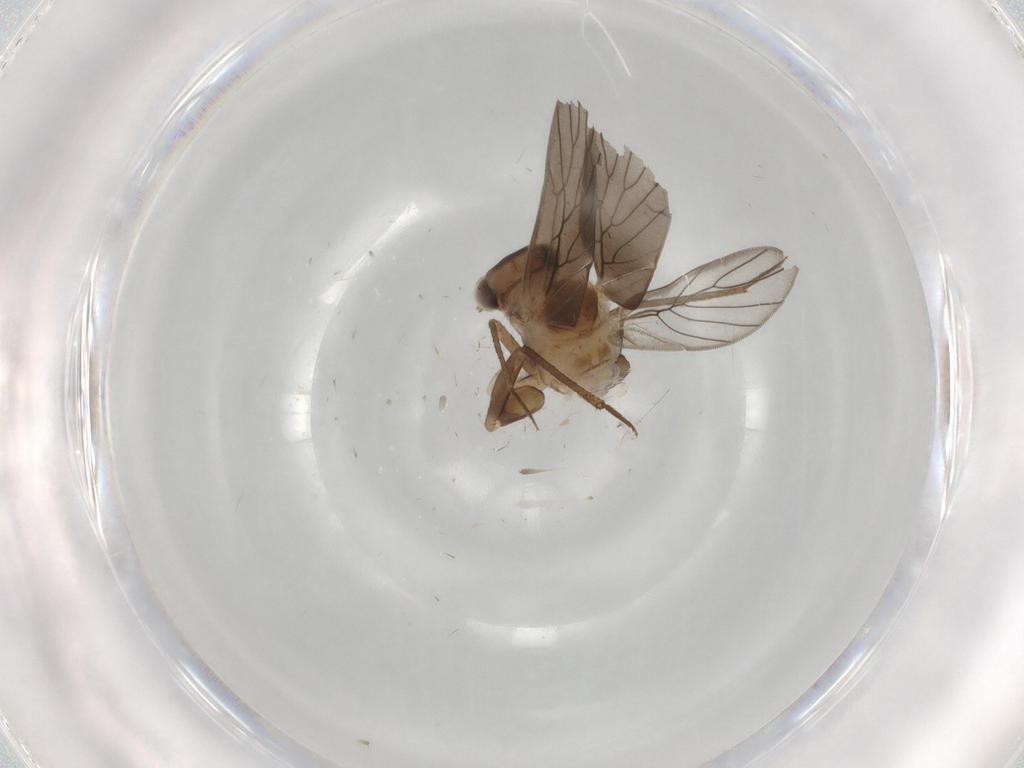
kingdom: Animalia
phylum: Arthropoda
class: Insecta
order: Psocodea
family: Lepidopsocidae
